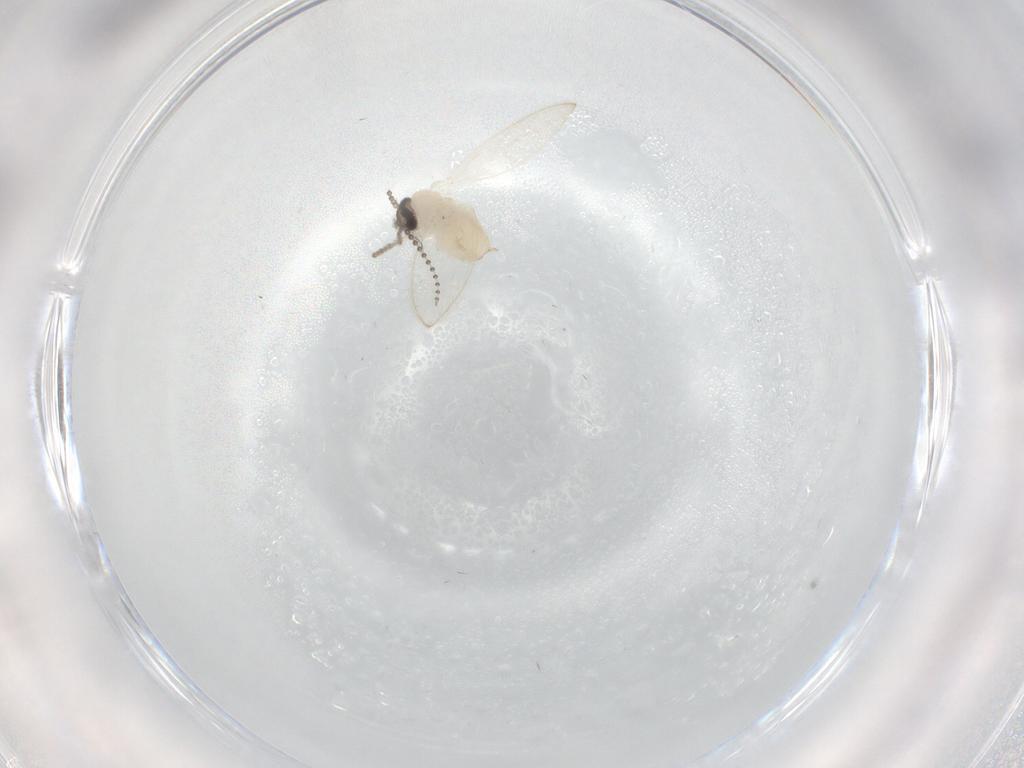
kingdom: Animalia
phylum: Arthropoda
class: Insecta
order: Diptera
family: Psychodidae
